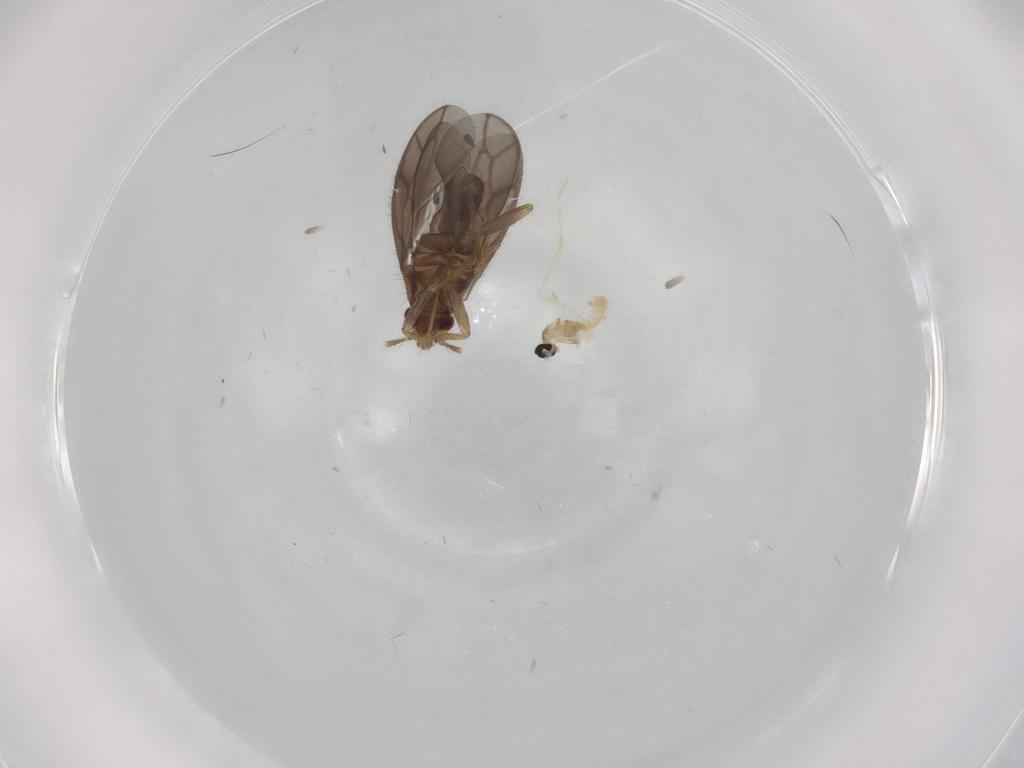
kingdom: Animalia
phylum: Arthropoda
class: Insecta
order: Diptera
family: Cecidomyiidae
